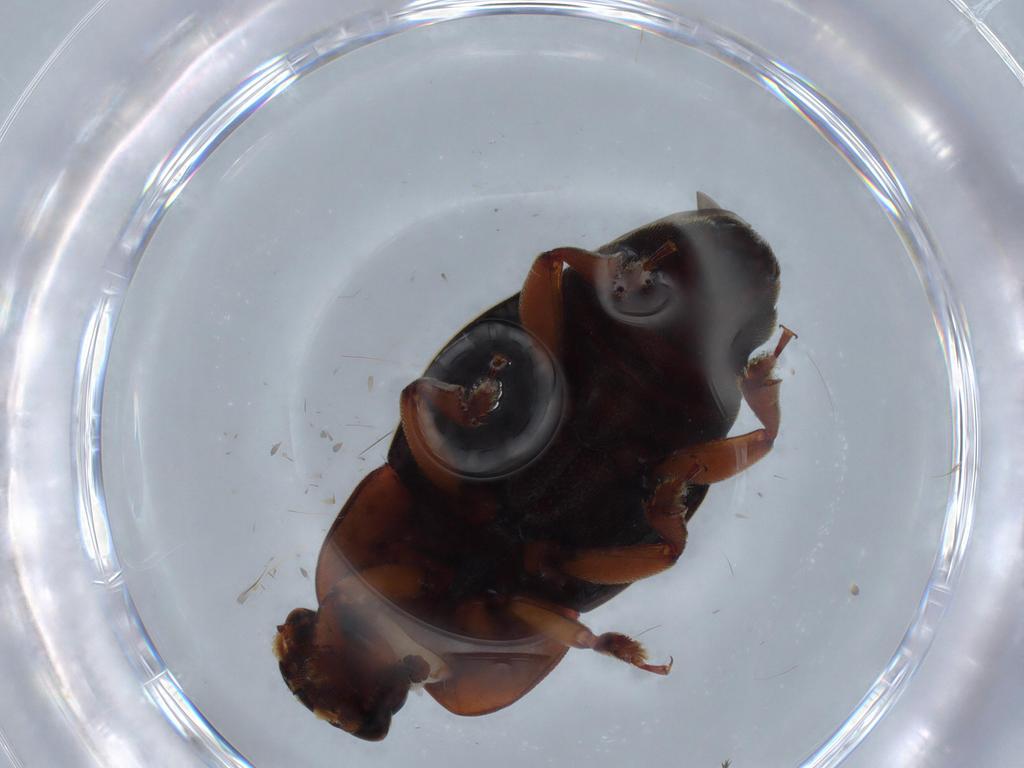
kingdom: Animalia
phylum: Arthropoda
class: Insecta
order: Coleoptera
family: Nitidulidae
